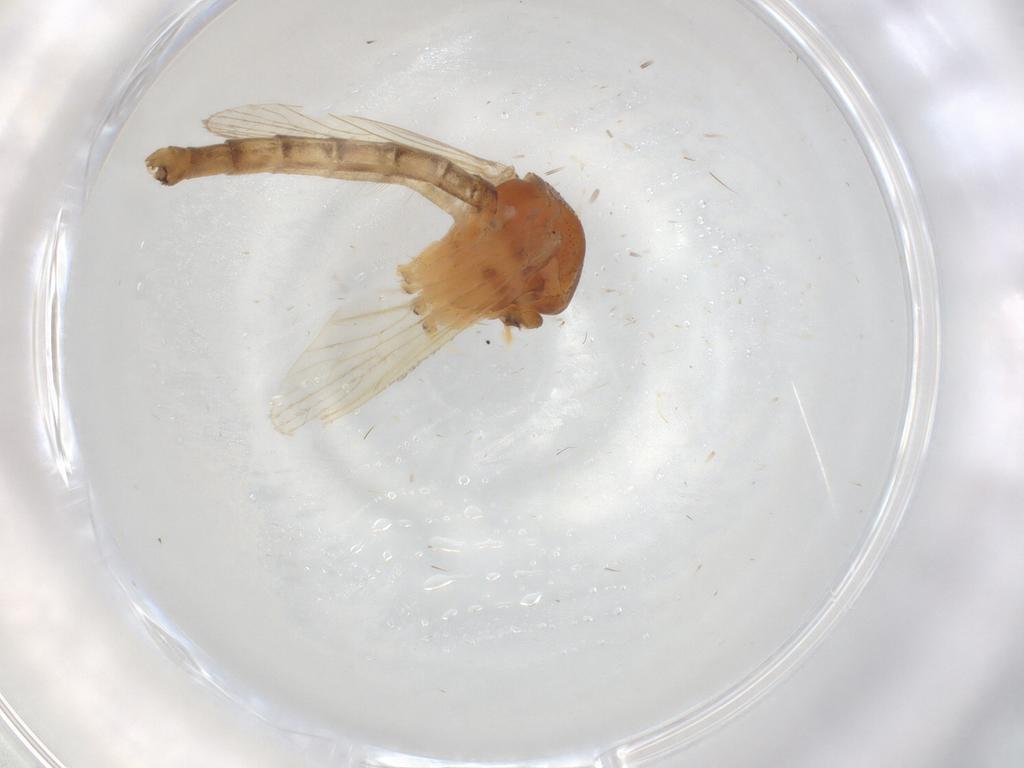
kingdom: Animalia
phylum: Arthropoda
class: Insecta
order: Diptera
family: Culicidae
